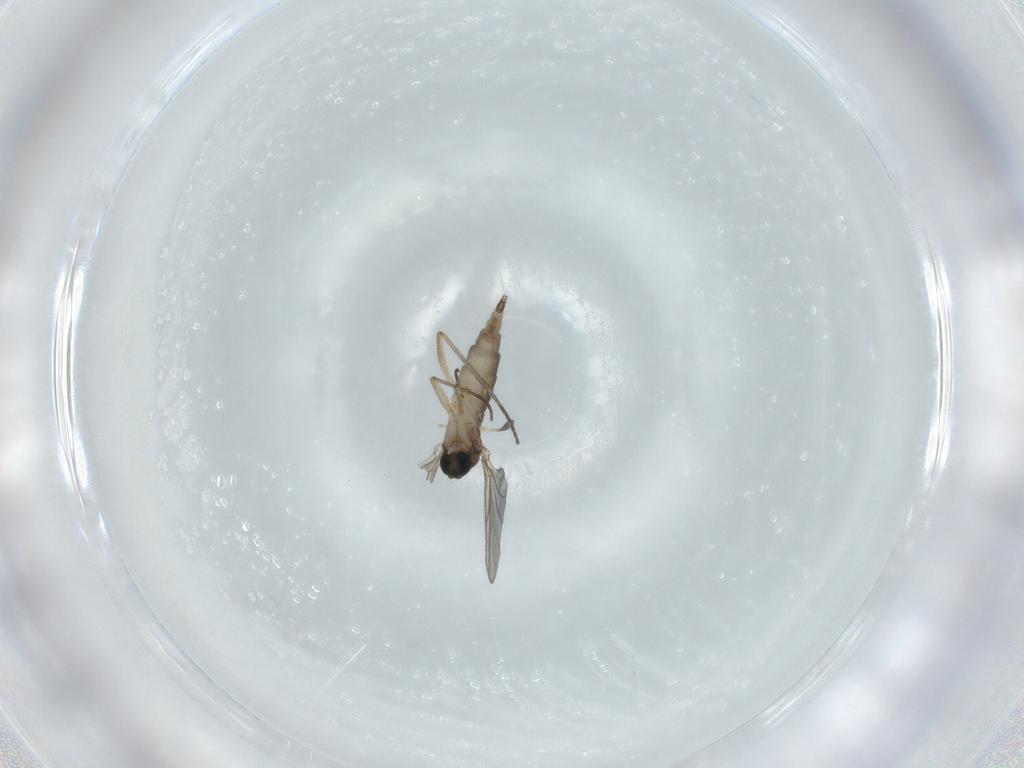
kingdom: Animalia
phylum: Arthropoda
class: Insecta
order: Diptera
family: Sciaridae
